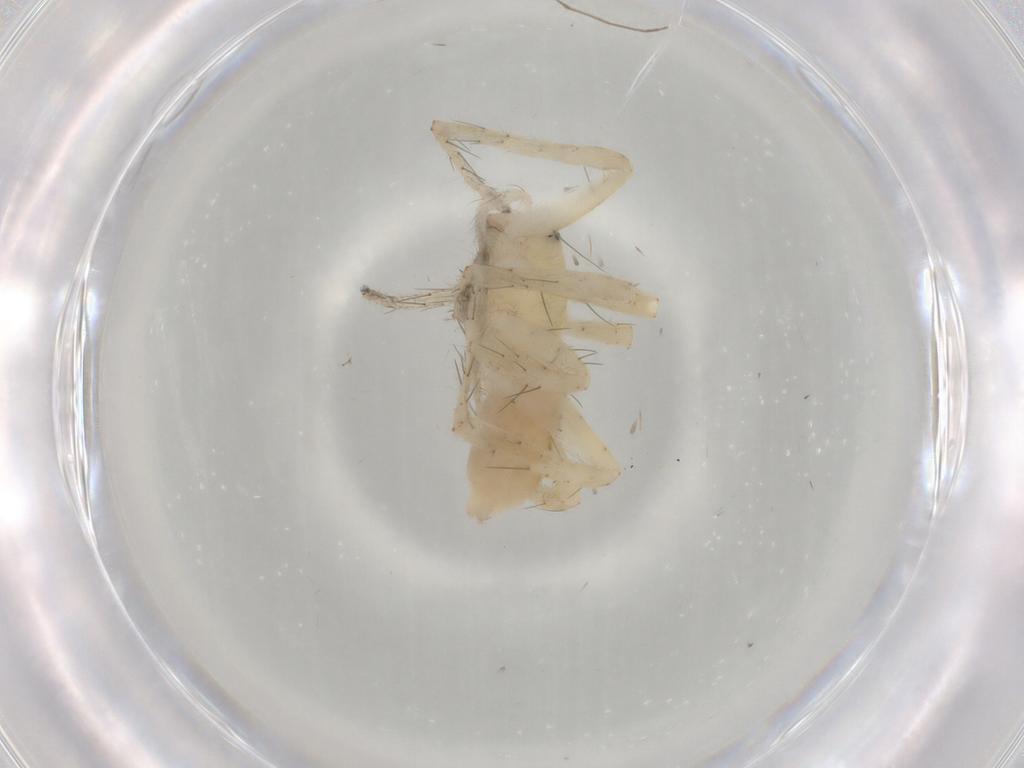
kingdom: Animalia
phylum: Arthropoda
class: Arachnida
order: Araneae
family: Anyphaenidae
